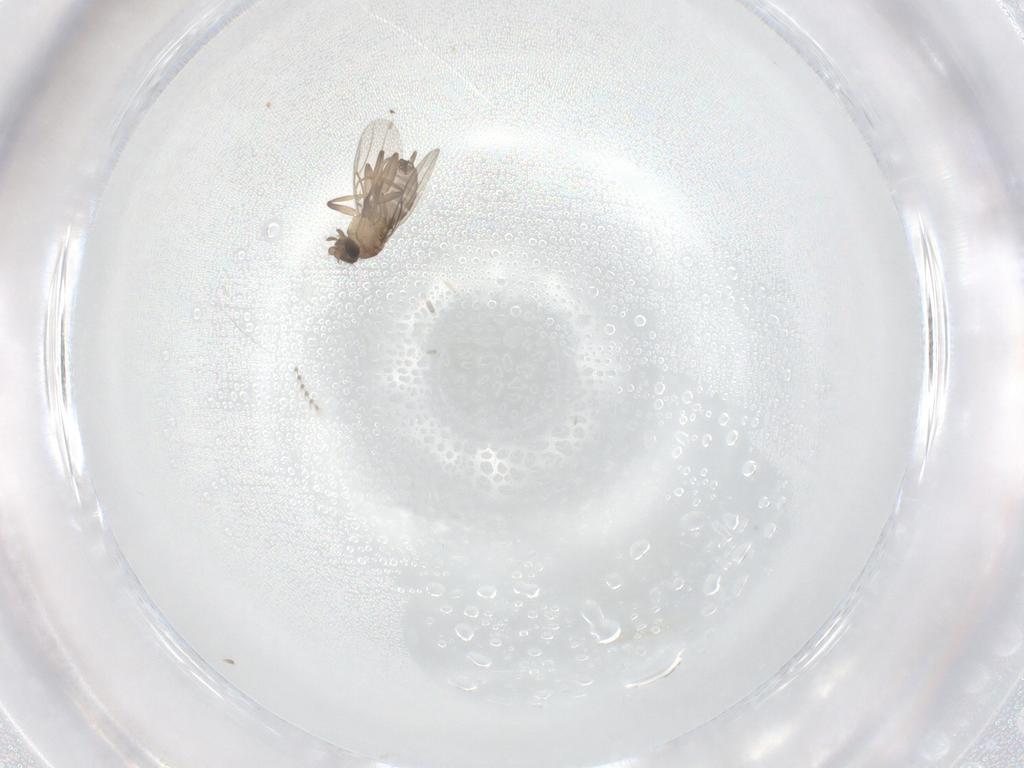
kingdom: Animalia
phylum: Arthropoda
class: Insecta
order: Diptera
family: Phoridae
